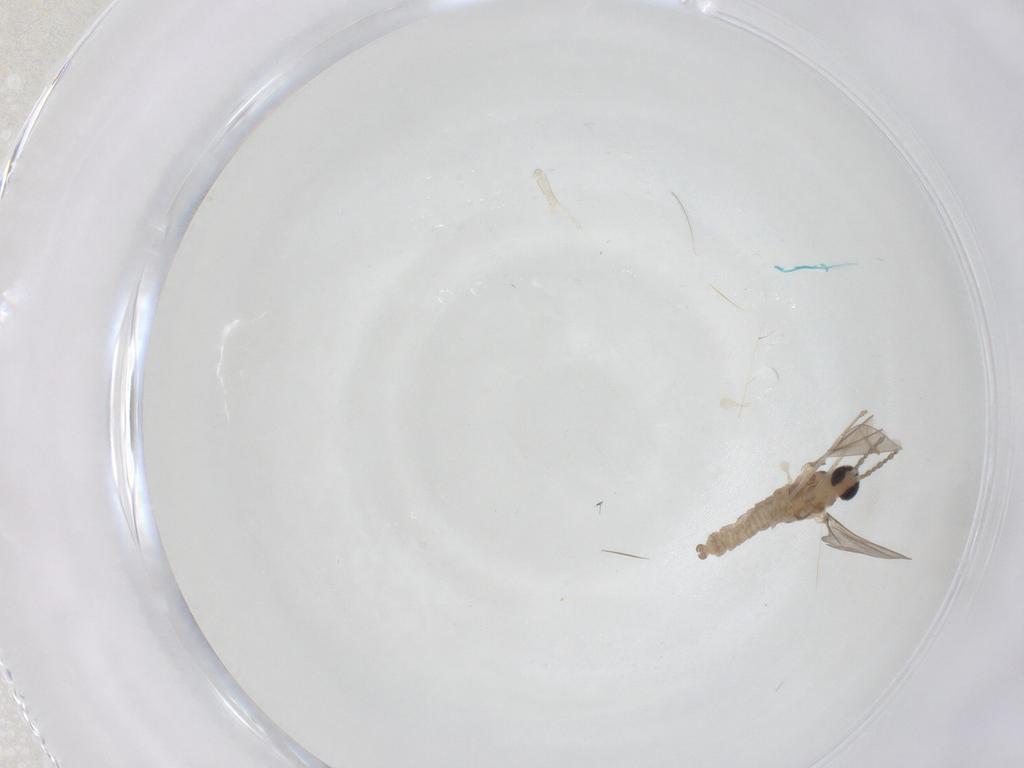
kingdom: Animalia
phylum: Arthropoda
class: Insecta
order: Diptera
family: Cecidomyiidae
